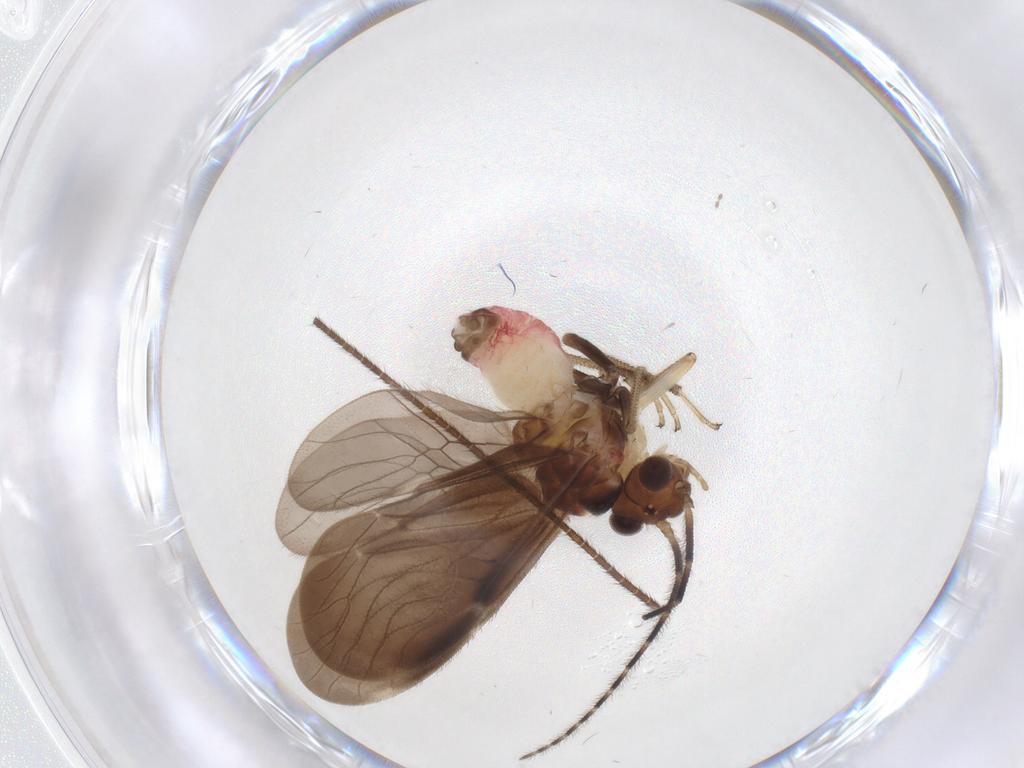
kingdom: Animalia
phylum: Arthropoda
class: Insecta
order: Psocodea
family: Amphipsocidae
